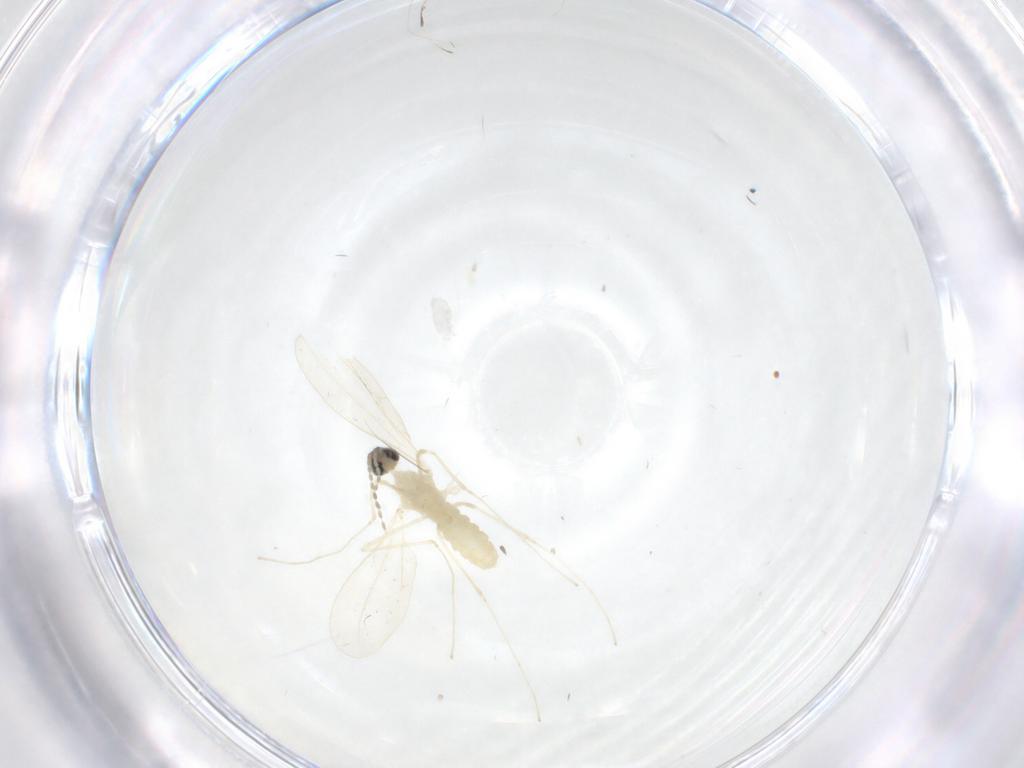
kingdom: Animalia
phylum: Arthropoda
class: Insecta
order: Diptera
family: Cecidomyiidae
